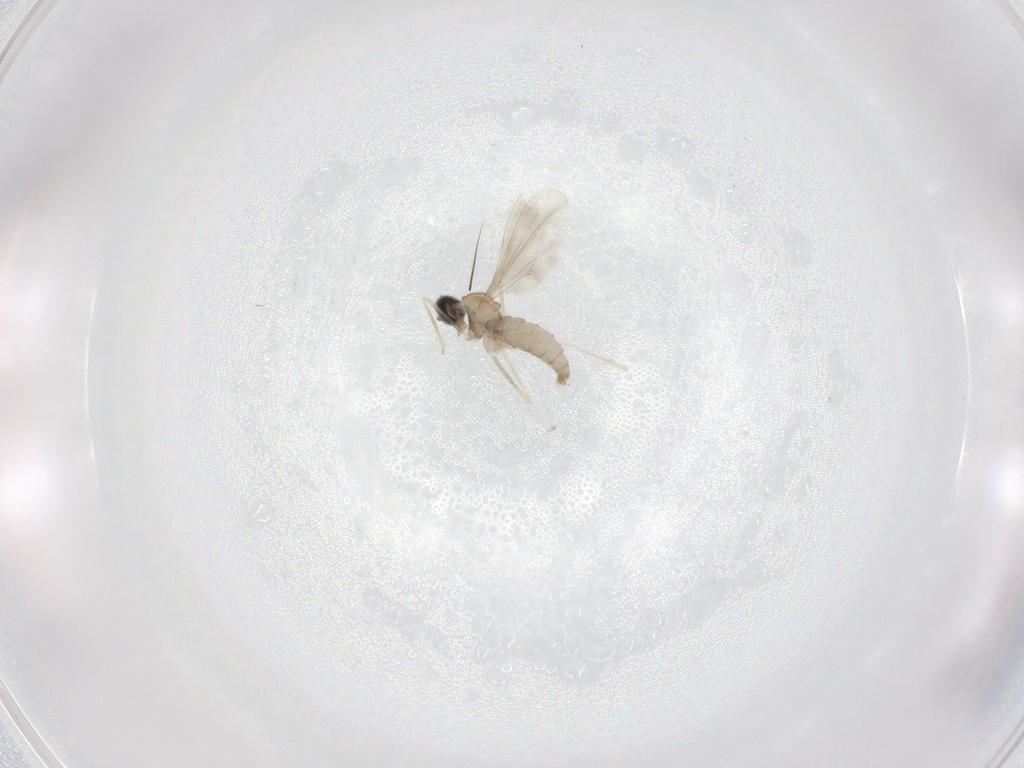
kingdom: Animalia
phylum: Arthropoda
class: Insecta
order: Diptera
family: Cecidomyiidae
